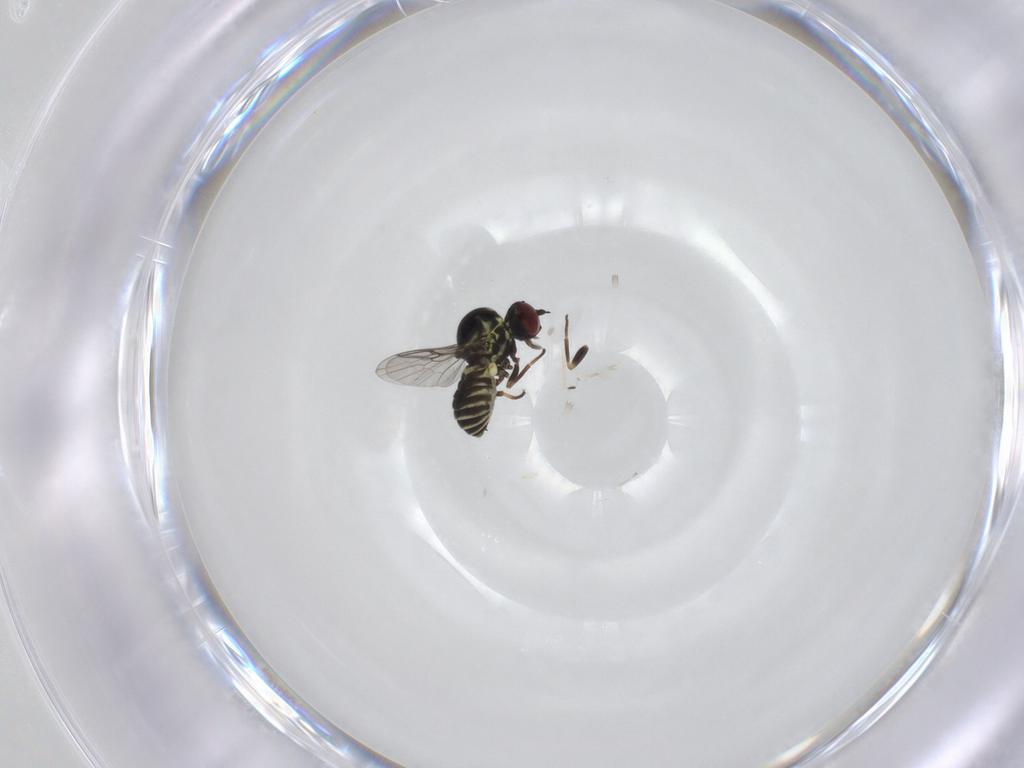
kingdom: Animalia
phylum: Arthropoda
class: Insecta
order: Diptera
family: Mythicomyiidae
